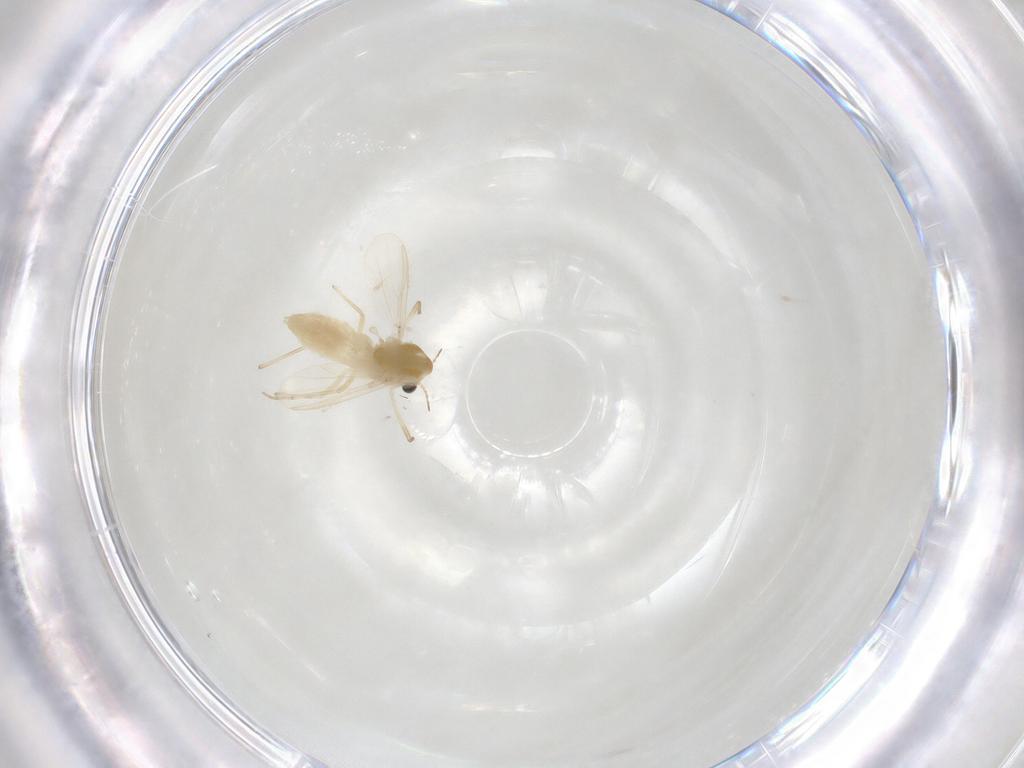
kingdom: Animalia
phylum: Arthropoda
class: Insecta
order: Diptera
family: Chironomidae
